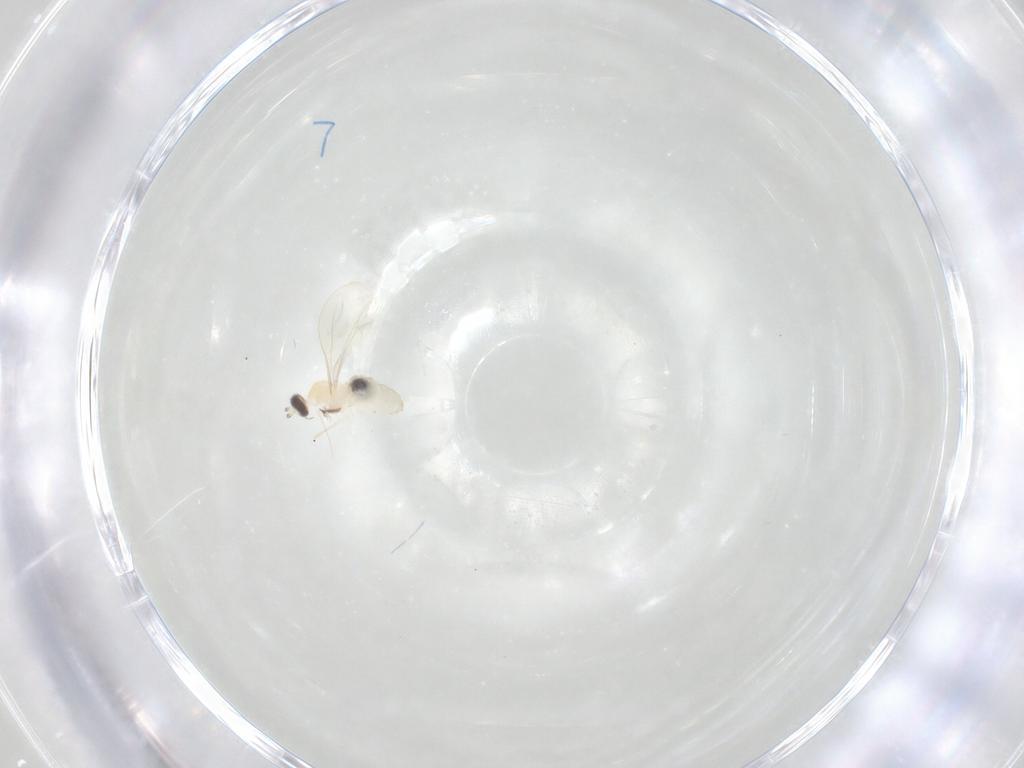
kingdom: Animalia
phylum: Arthropoda
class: Insecta
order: Diptera
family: Cecidomyiidae
